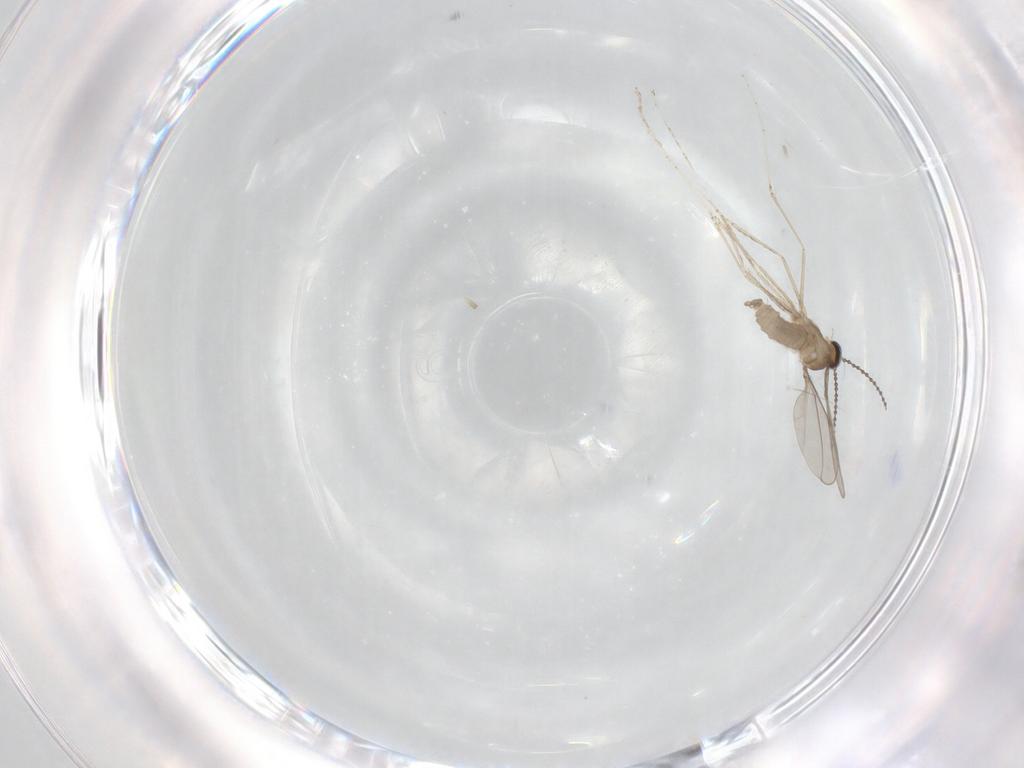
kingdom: Animalia
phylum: Arthropoda
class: Insecta
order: Diptera
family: Cecidomyiidae
